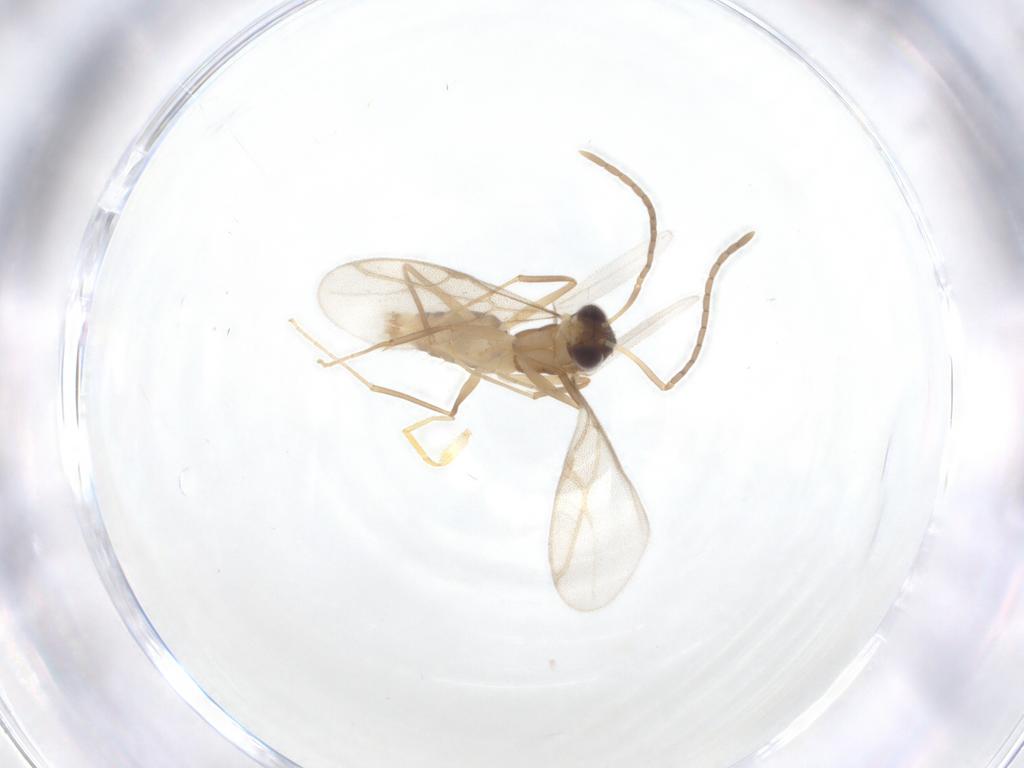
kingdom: Animalia
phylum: Arthropoda
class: Insecta
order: Hymenoptera
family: Formicidae
